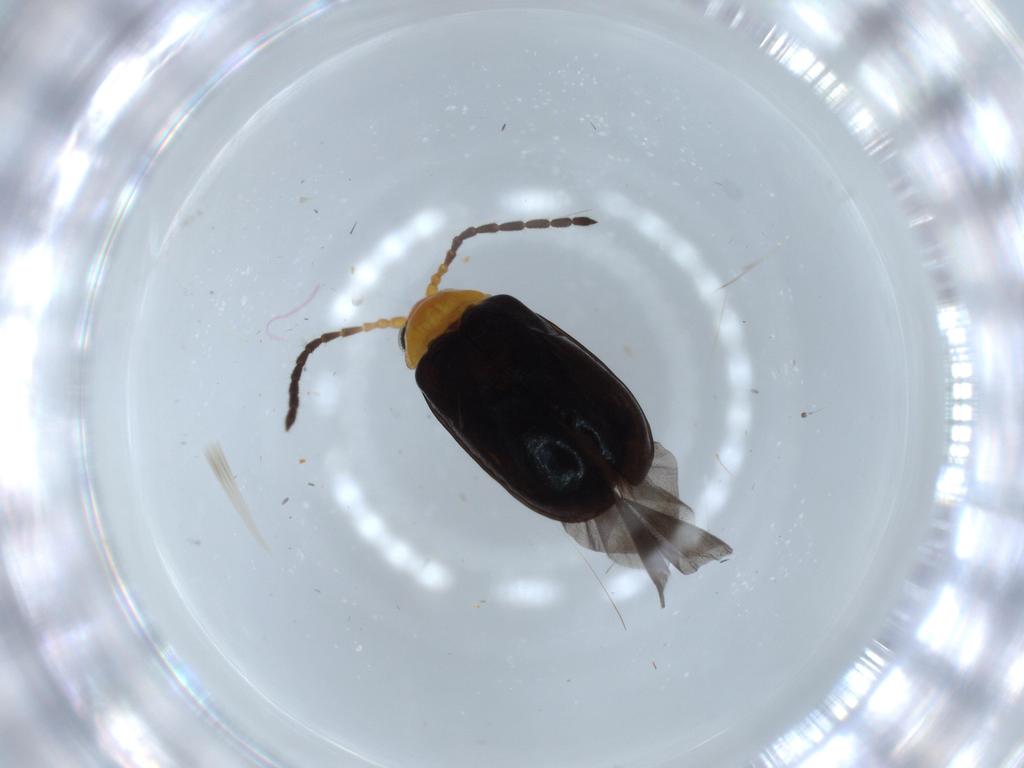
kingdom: Animalia
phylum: Arthropoda
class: Insecta
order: Coleoptera
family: Chrysomelidae
